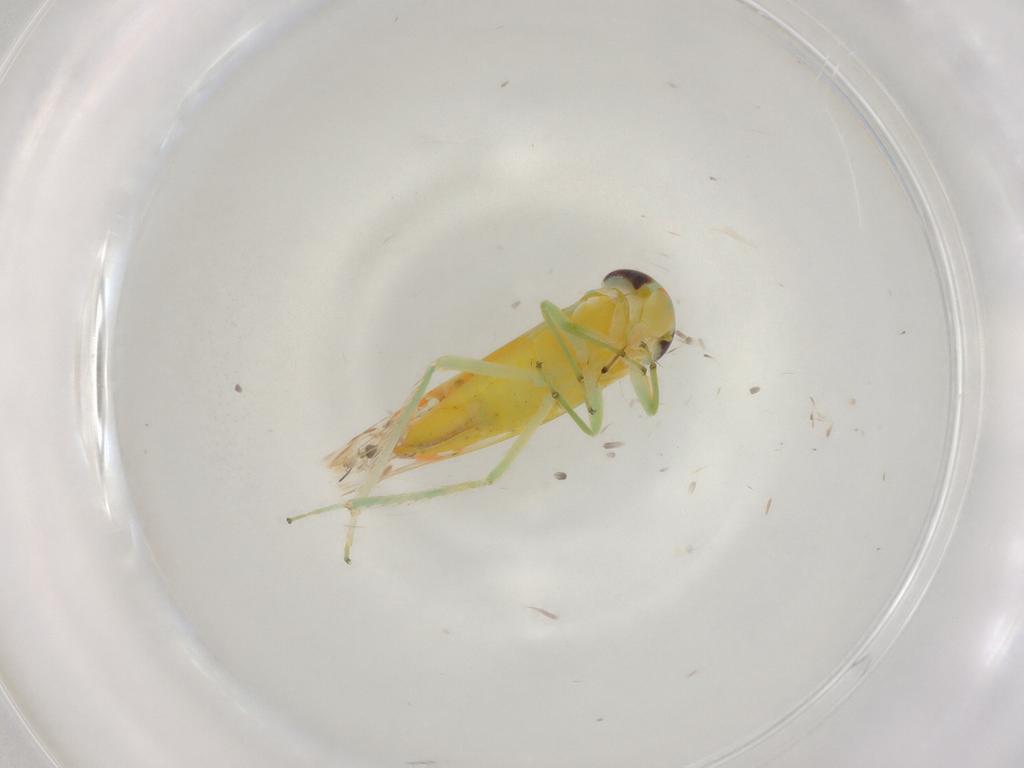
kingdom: Animalia
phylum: Arthropoda
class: Insecta
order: Hemiptera
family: Cicadellidae
